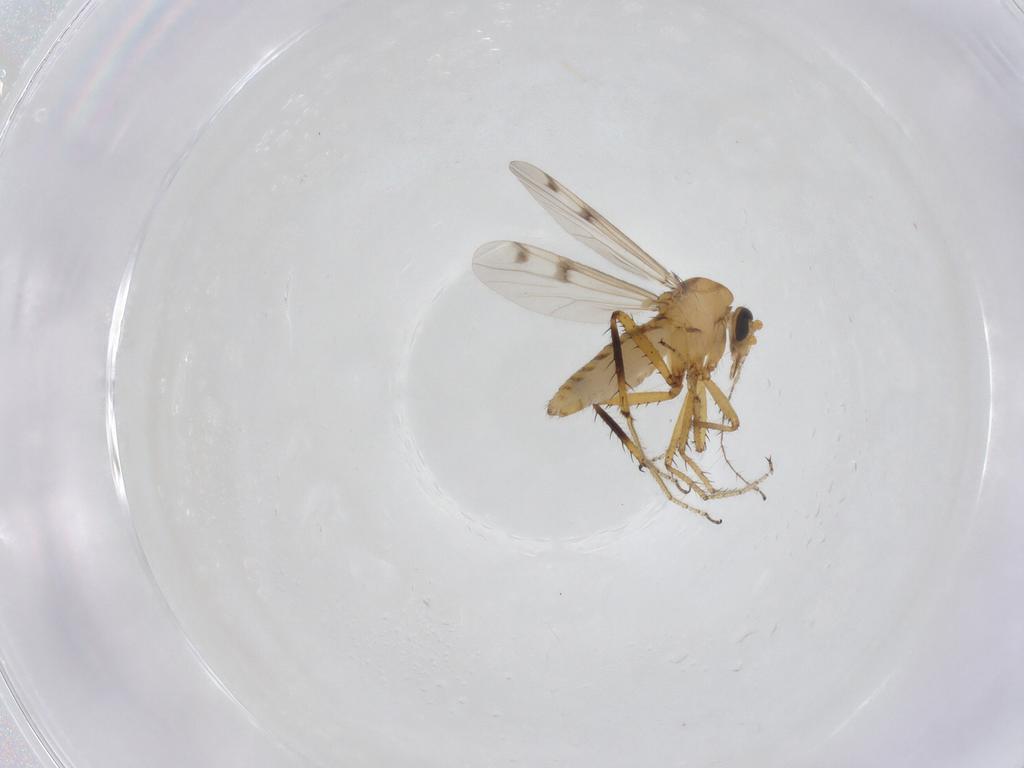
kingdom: Animalia
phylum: Arthropoda
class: Insecta
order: Diptera
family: Ceratopogonidae
